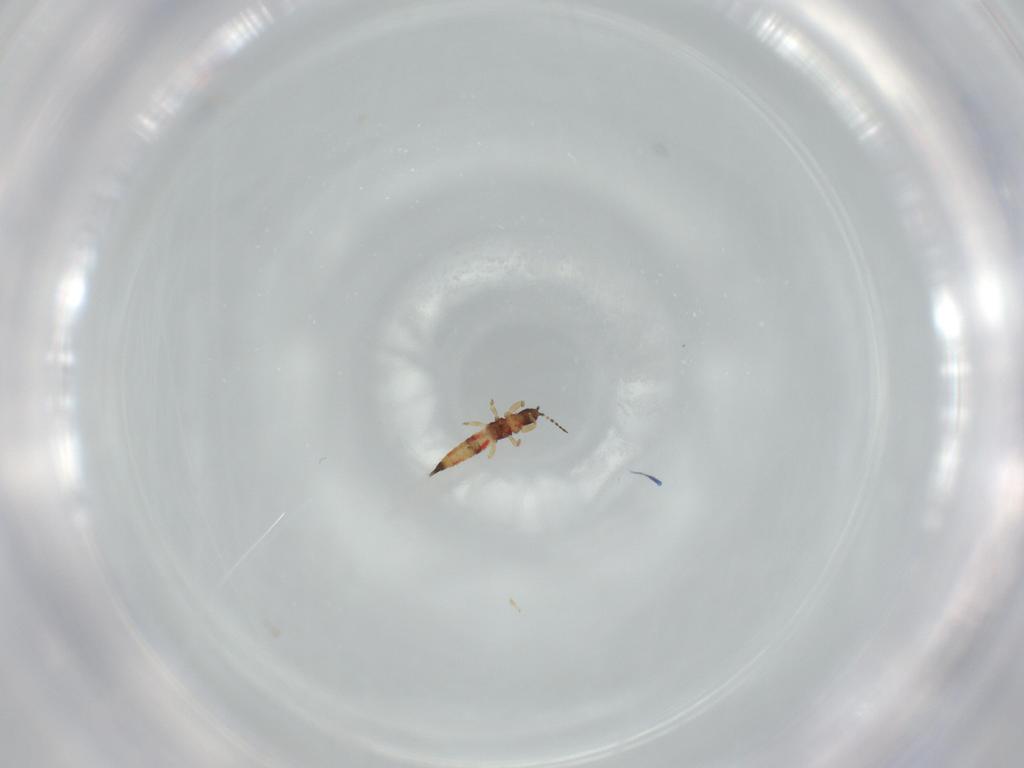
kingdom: Animalia
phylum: Arthropoda
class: Insecta
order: Thysanoptera
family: Phlaeothripidae
